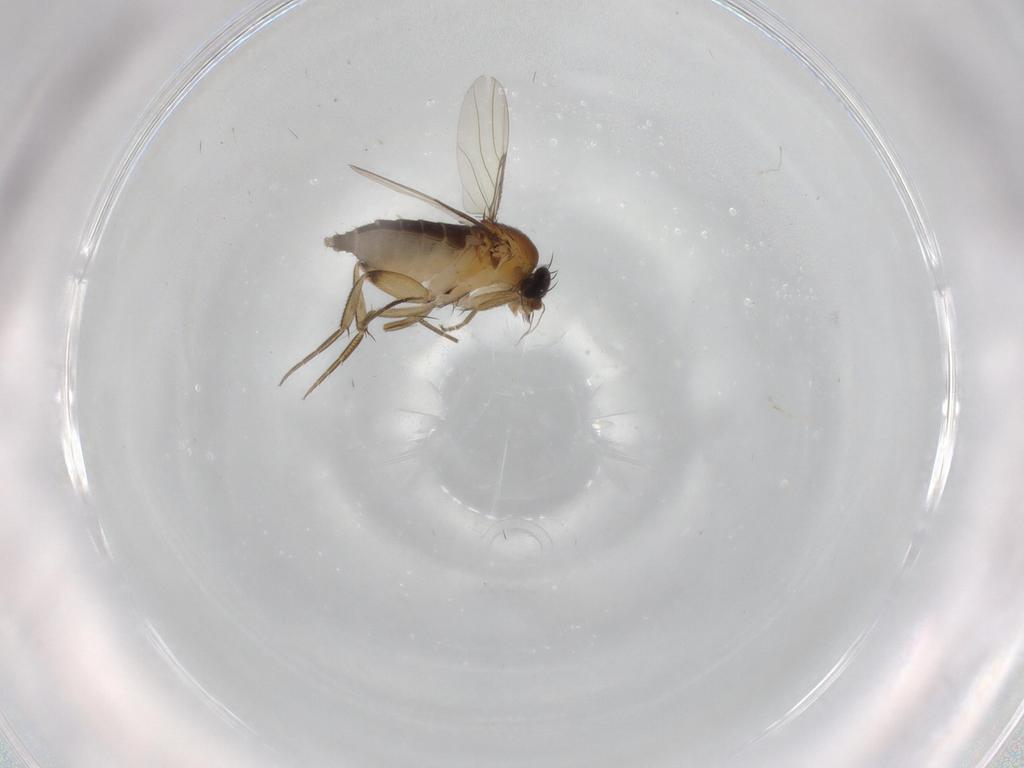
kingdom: Animalia
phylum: Arthropoda
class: Insecta
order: Diptera
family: Phoridae
